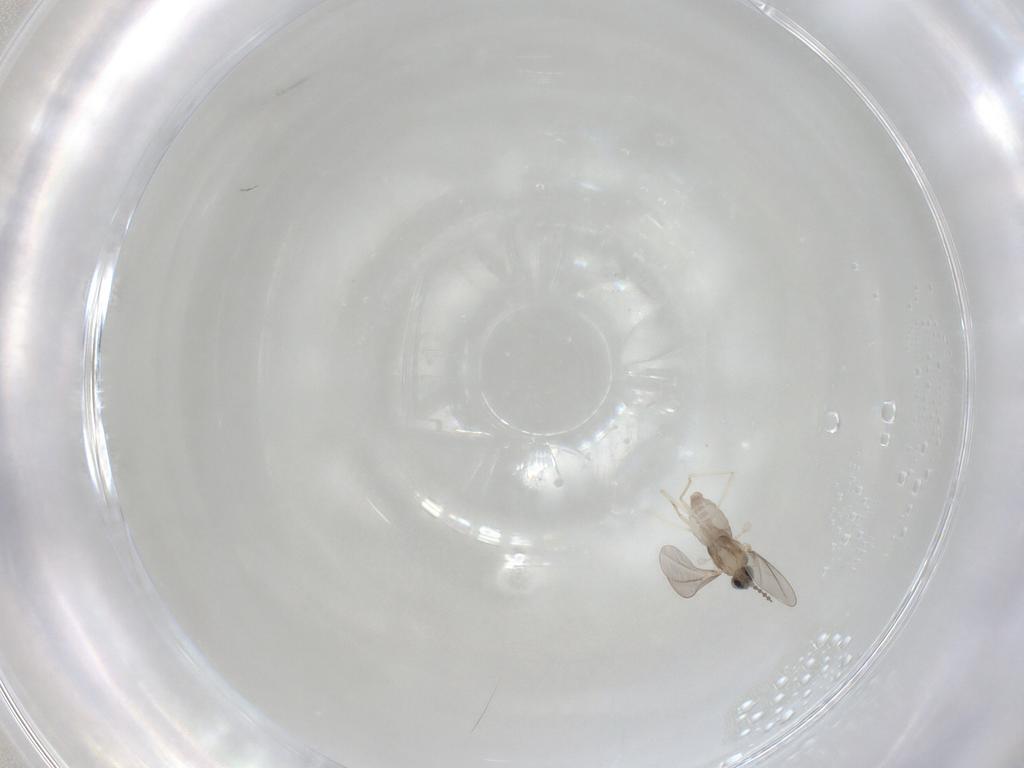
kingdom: Animalia
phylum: Arthropoda
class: Insecta
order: Diptera
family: Cecidomyiidae
